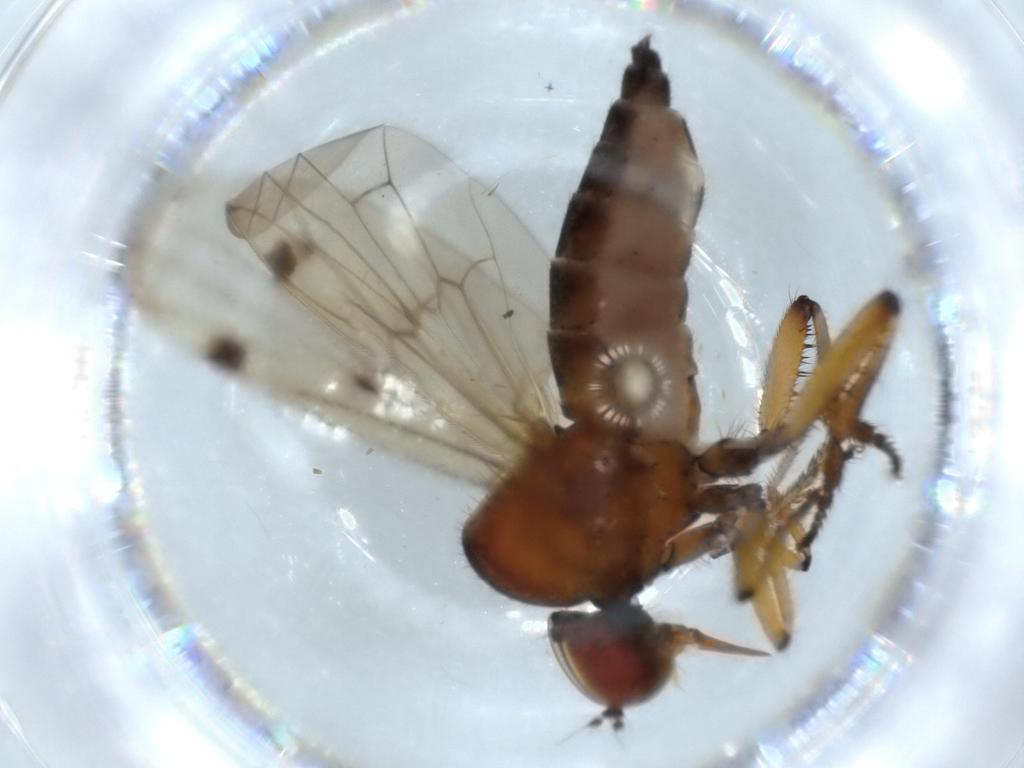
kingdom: Animalia
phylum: Arthropoda
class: Insecta
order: Diptera
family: Hybotidae
